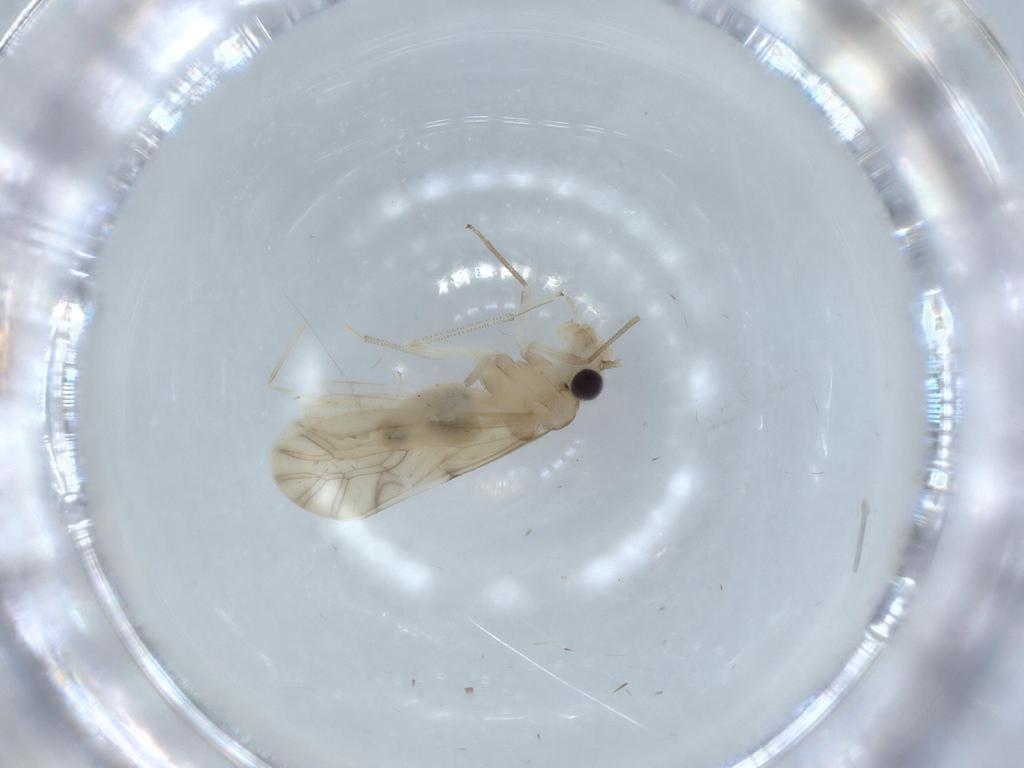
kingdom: Animalia
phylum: Arthropoda
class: Insecta
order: Psocodea
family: Caeciliusidae
